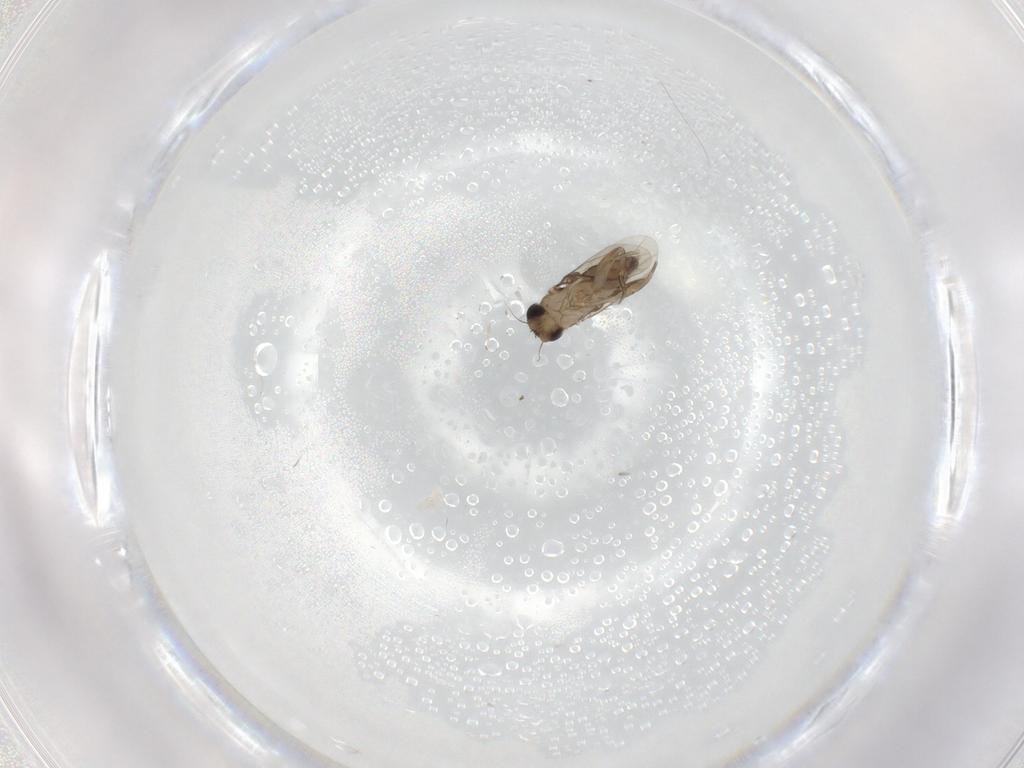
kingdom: Animalia
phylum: Arthropoda
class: Insecta
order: Diptera
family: Phoridae
